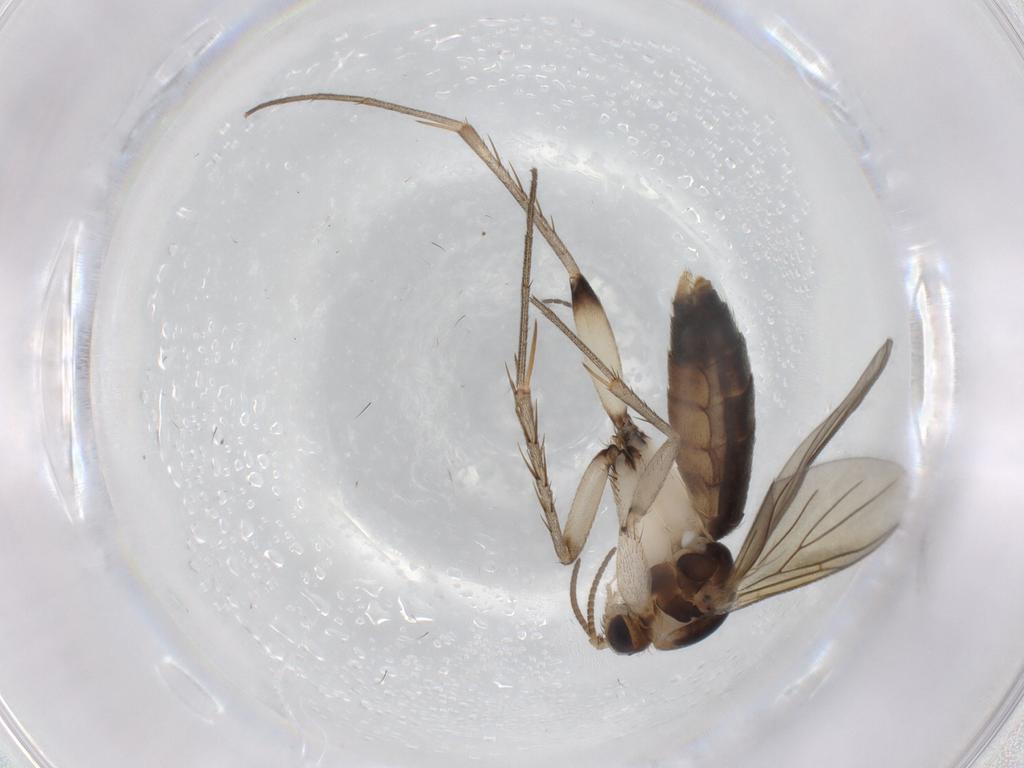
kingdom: Animalia
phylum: Arthropoda
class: Insecta
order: Diptera
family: Mycetophilidae
